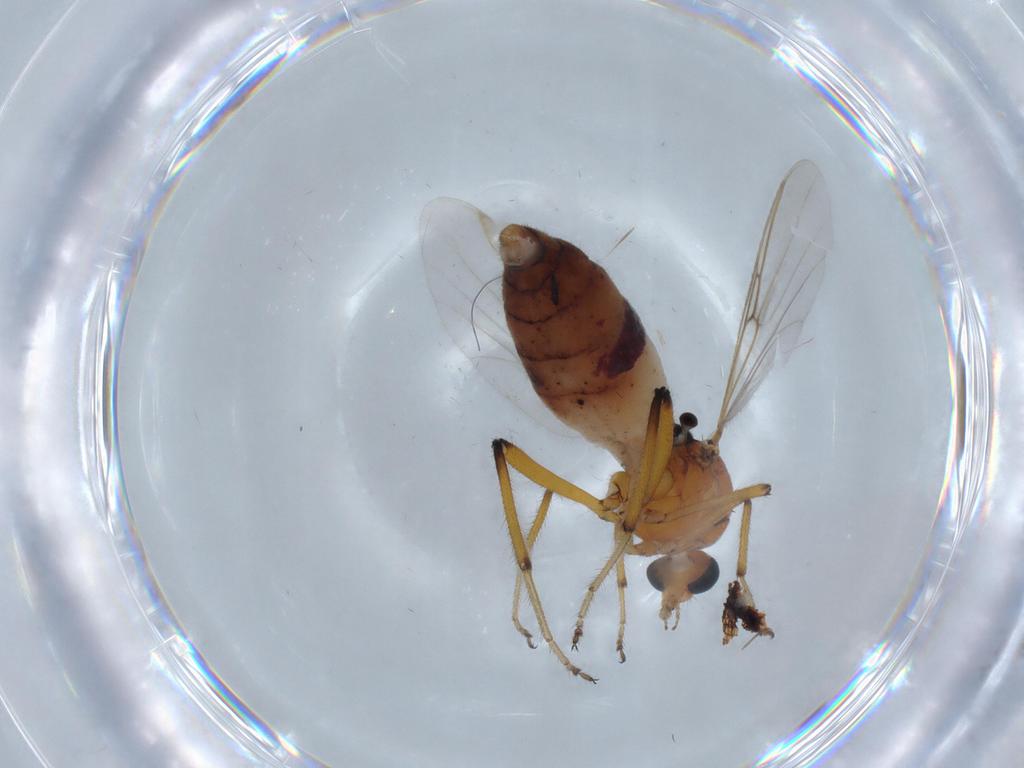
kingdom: Animalia
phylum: Arthropoda
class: Insecta
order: Diptera
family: Ceratopogonidae
